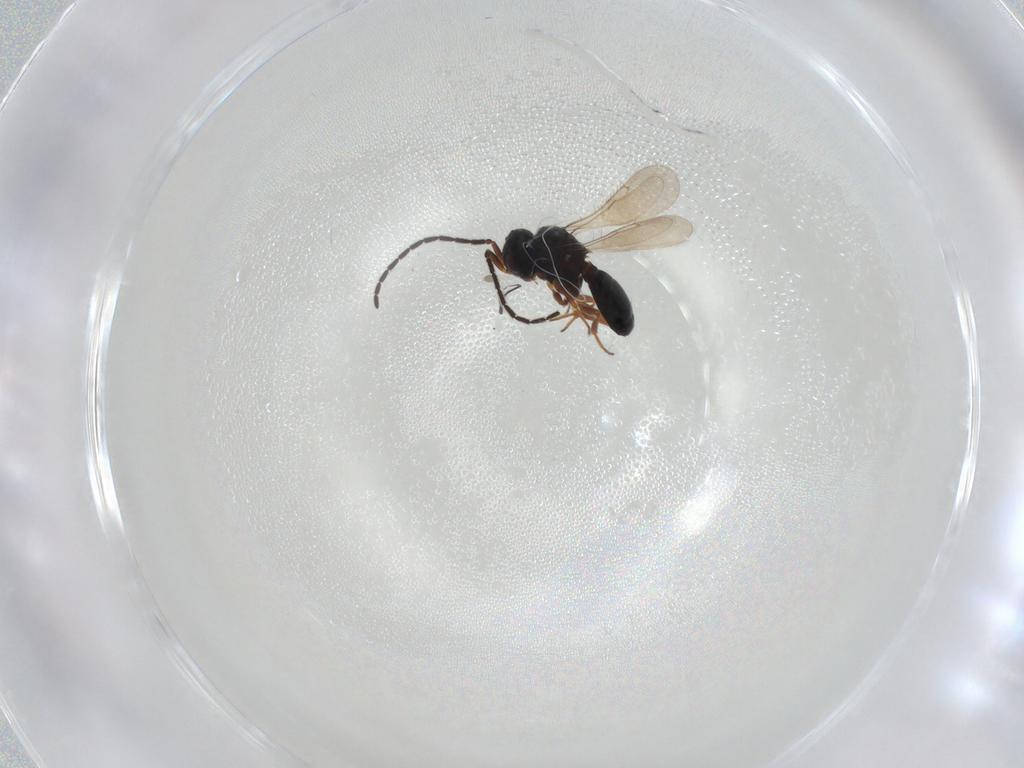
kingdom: Animalia
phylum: Arthropoda
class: Insecta
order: Hymenoptera
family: Scelionidae
